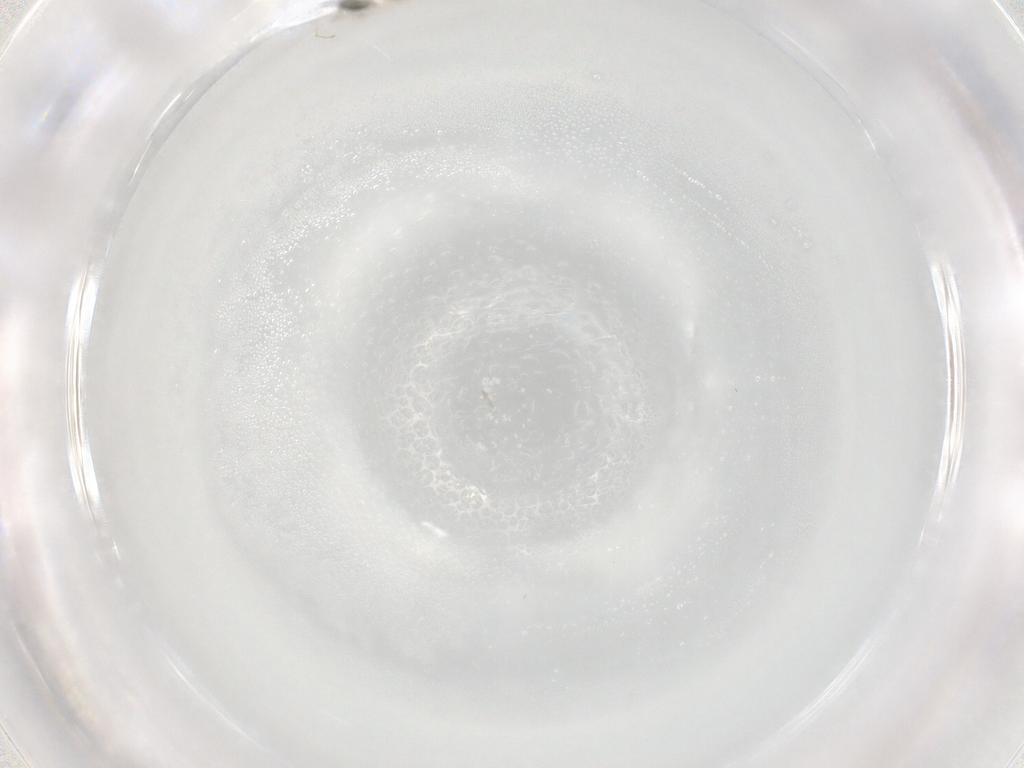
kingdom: Animalia
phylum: Arthropoda
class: Insecta
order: Diptera
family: Cecidomyiidae
